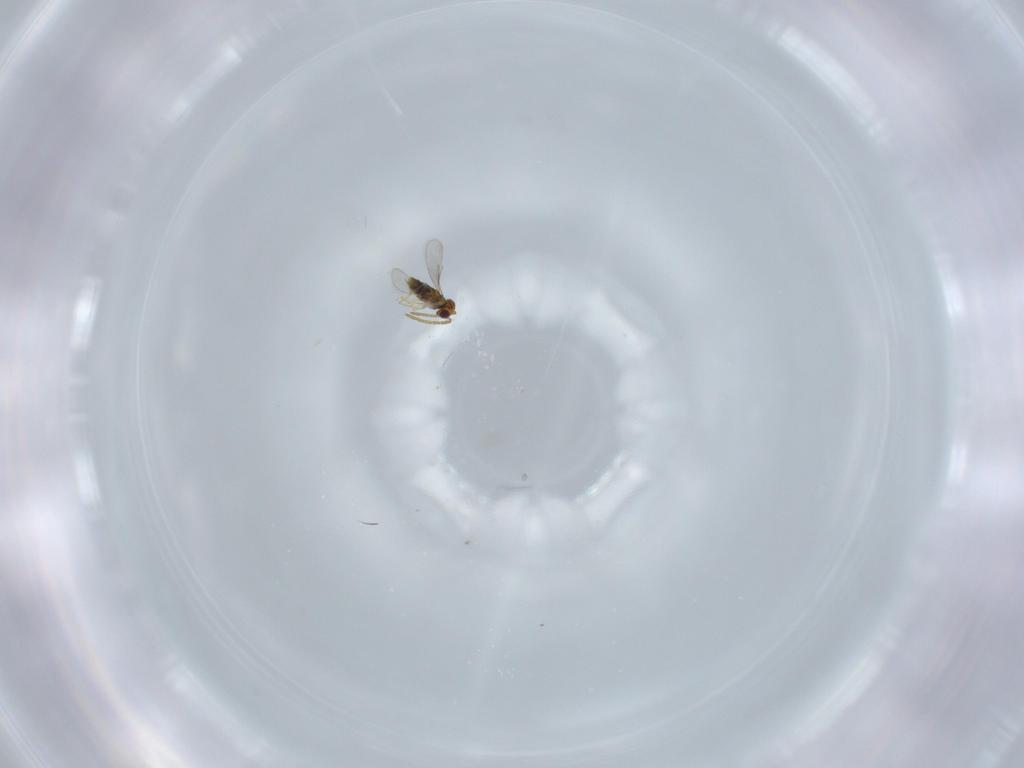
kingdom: Animalia
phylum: Arthropoda
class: Insecta
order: Hymenoptera
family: Aphelinidae
